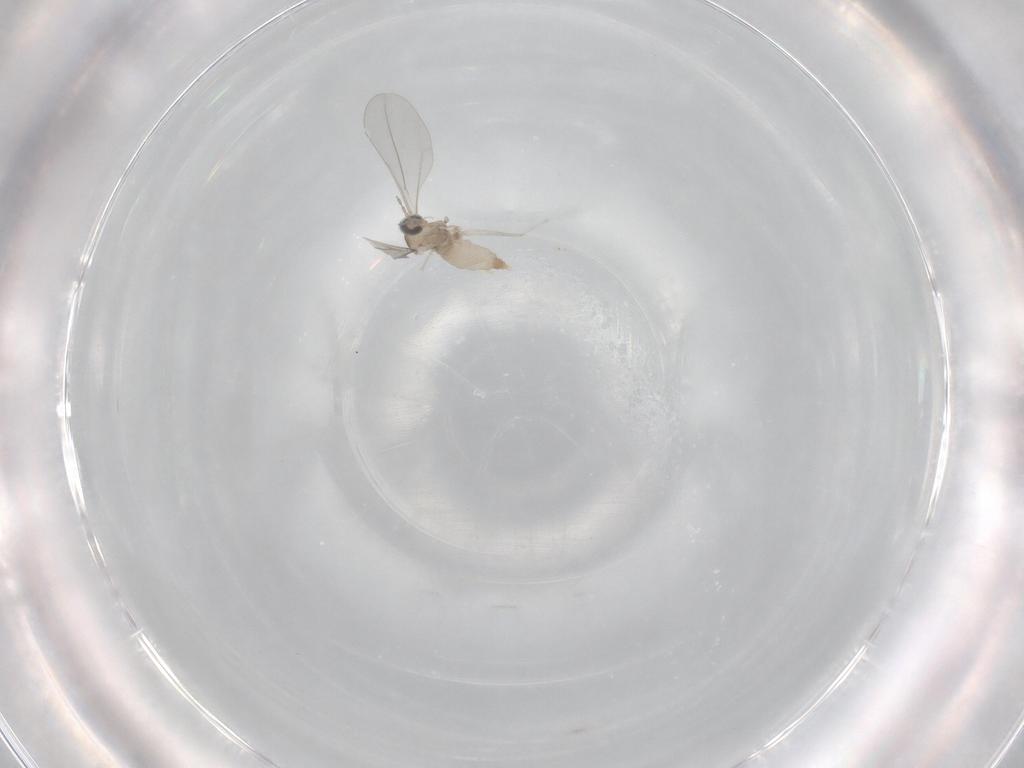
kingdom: Animalia
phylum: Arthropoda
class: Insecta
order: Diptera
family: Cecidomyiidae
